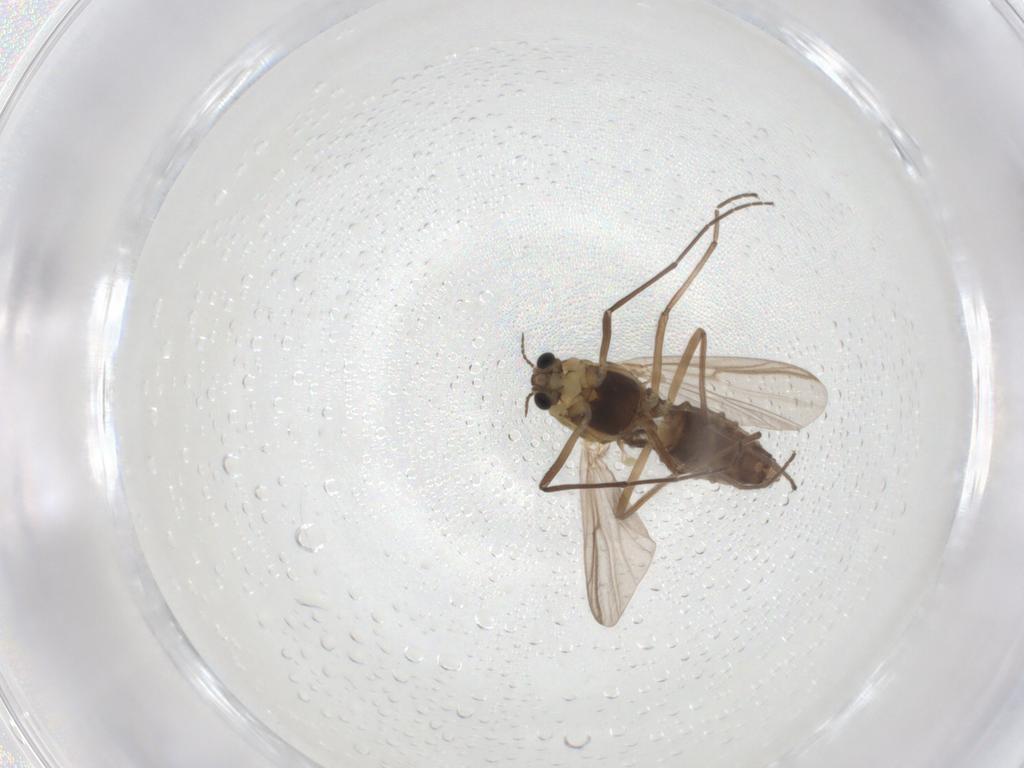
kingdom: Animalia
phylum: Arthropoda
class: Insecta
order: Diptera
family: Chironomidae
